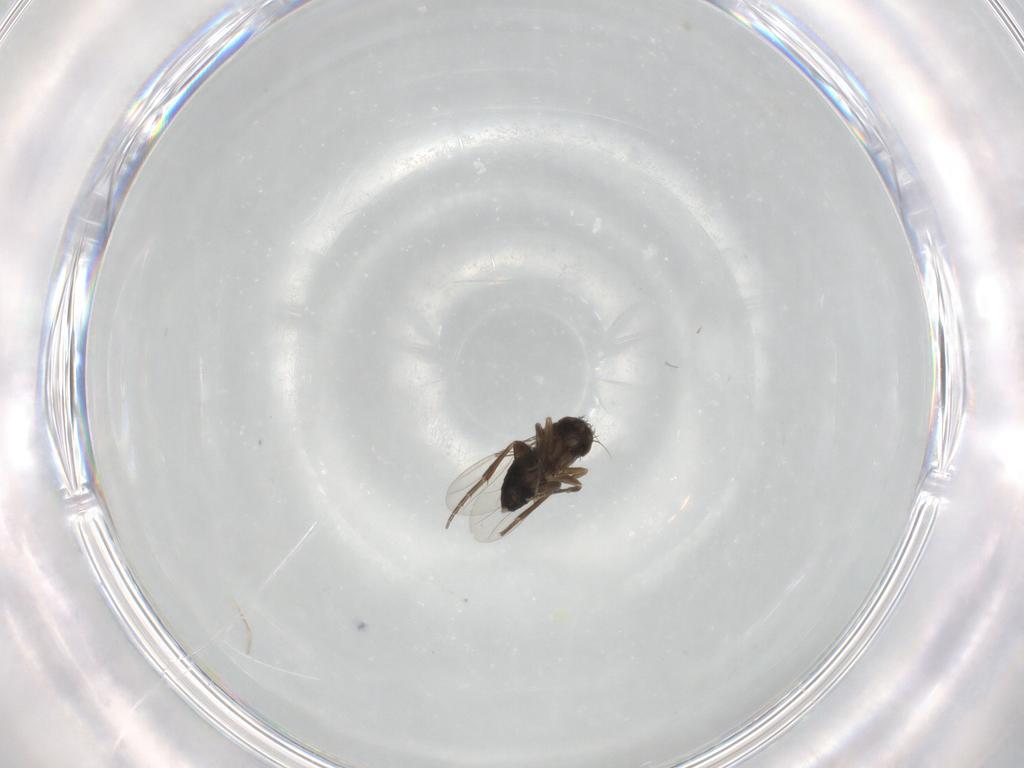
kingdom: Animalia
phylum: Arthropoda
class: Insecta
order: Diptera
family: Phoridae
